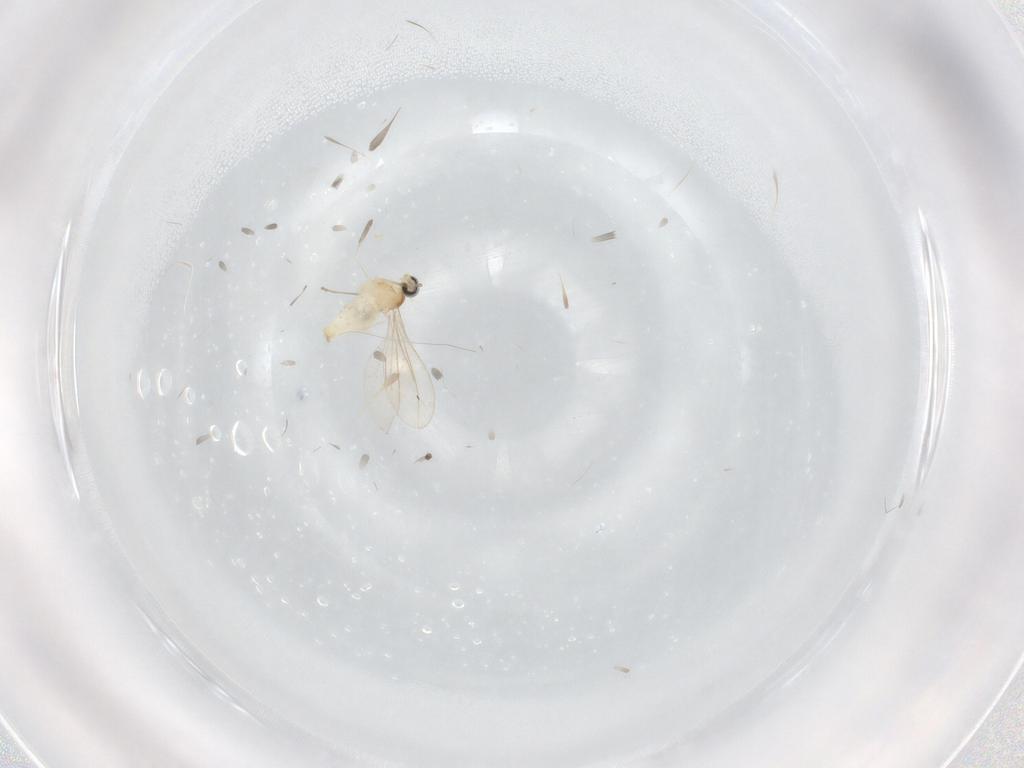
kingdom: Animalia
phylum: Arthropoda
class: Insecta
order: Diptera
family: Cecidomyiidae
